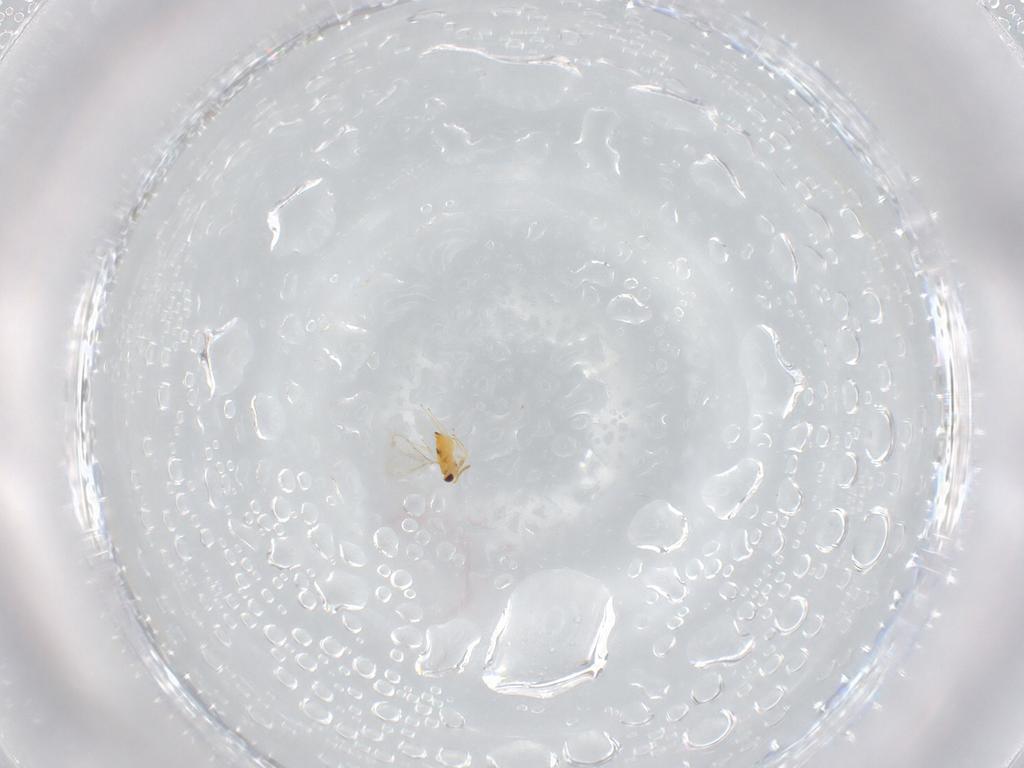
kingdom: Animalia
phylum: Arthropoda
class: Insecta
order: Hymenoptera
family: Aphelinidae
